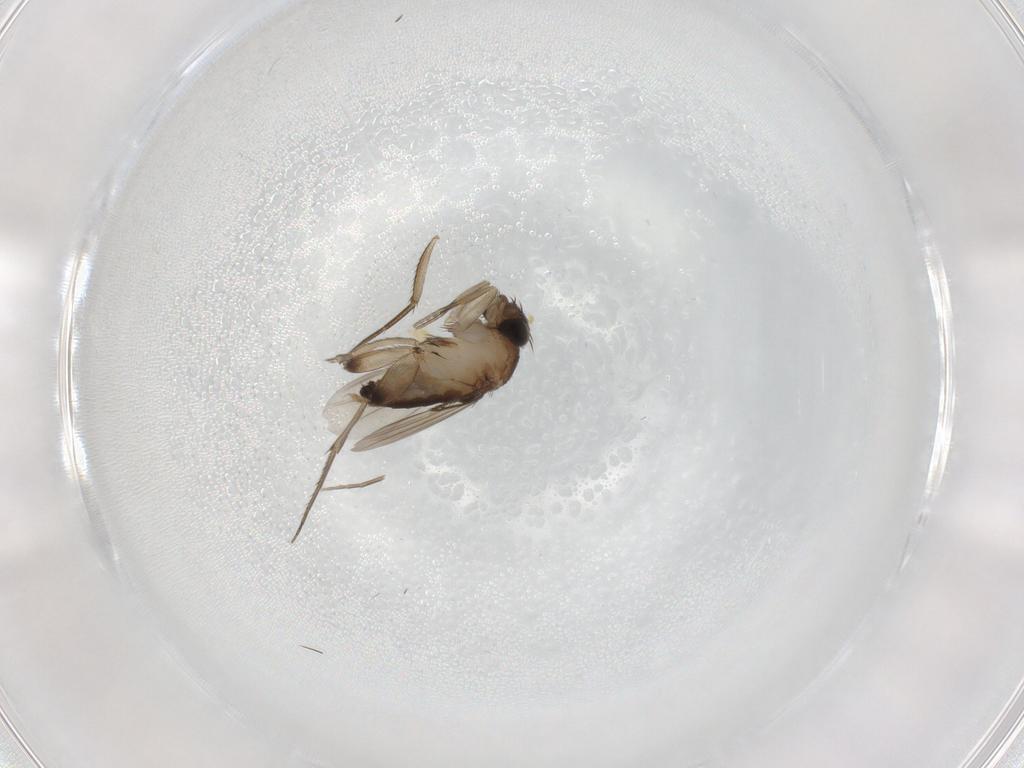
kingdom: Animalia
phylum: Arthropoda
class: Insecta
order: Diptera
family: Phoridae
